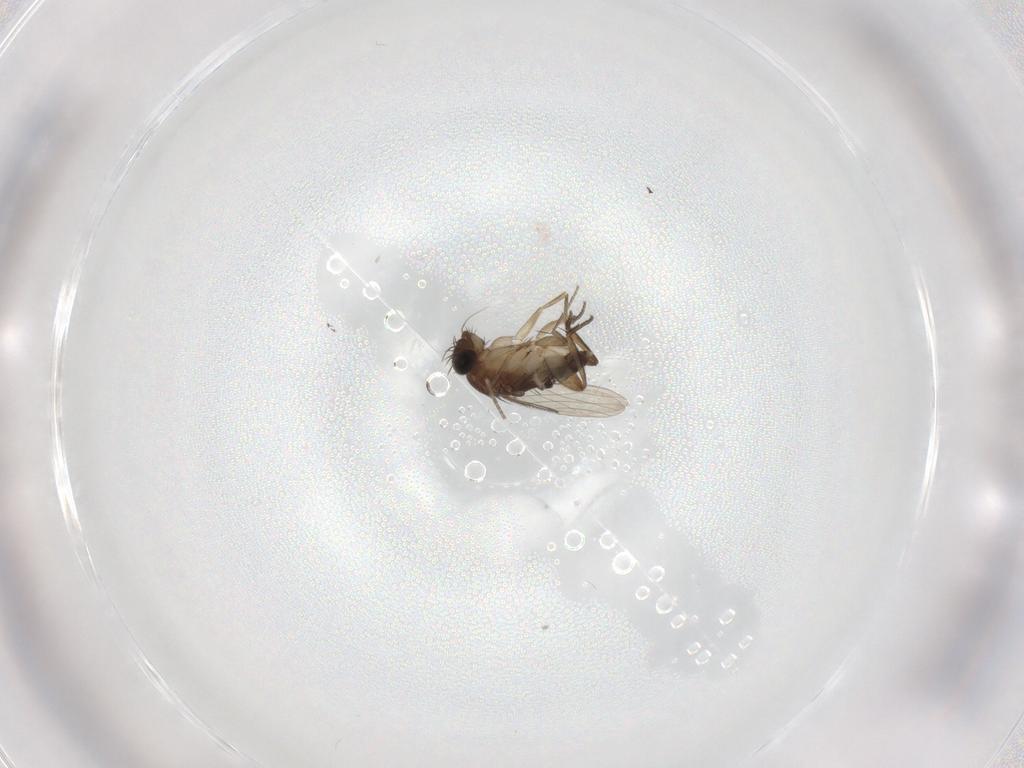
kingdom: Animalia
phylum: Arthropoda
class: Insecta
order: Diptera
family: Phoridae
